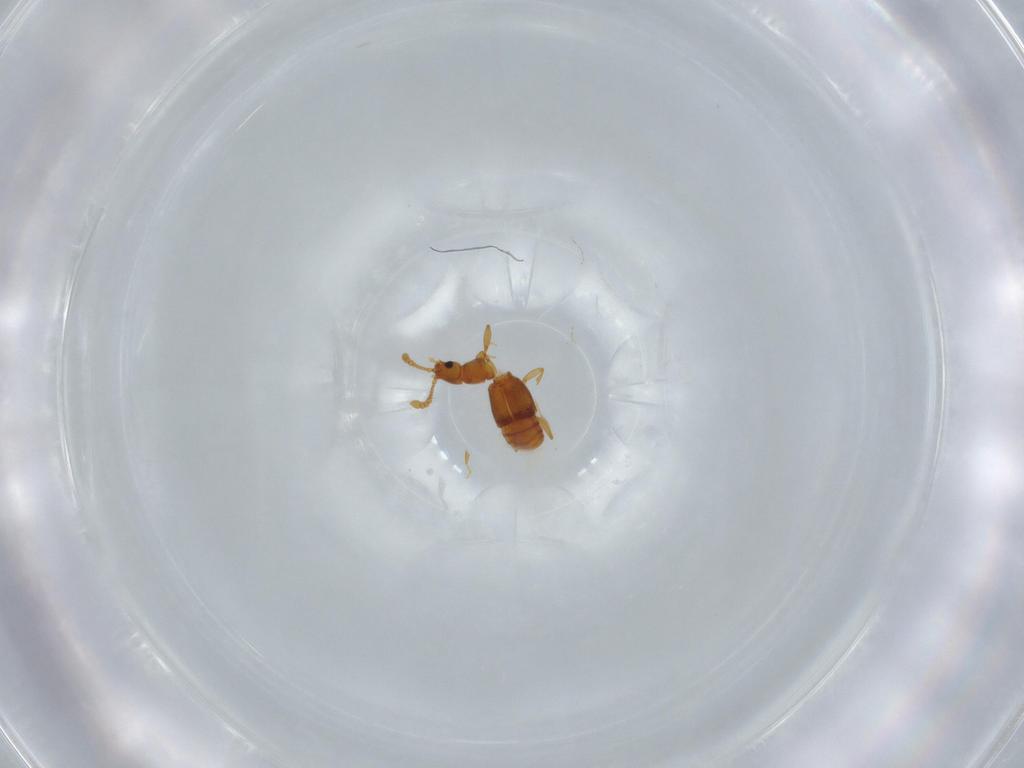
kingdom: Animalia
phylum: Arthropoda
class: Insecta
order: Coleoptera
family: Staphylinidae
